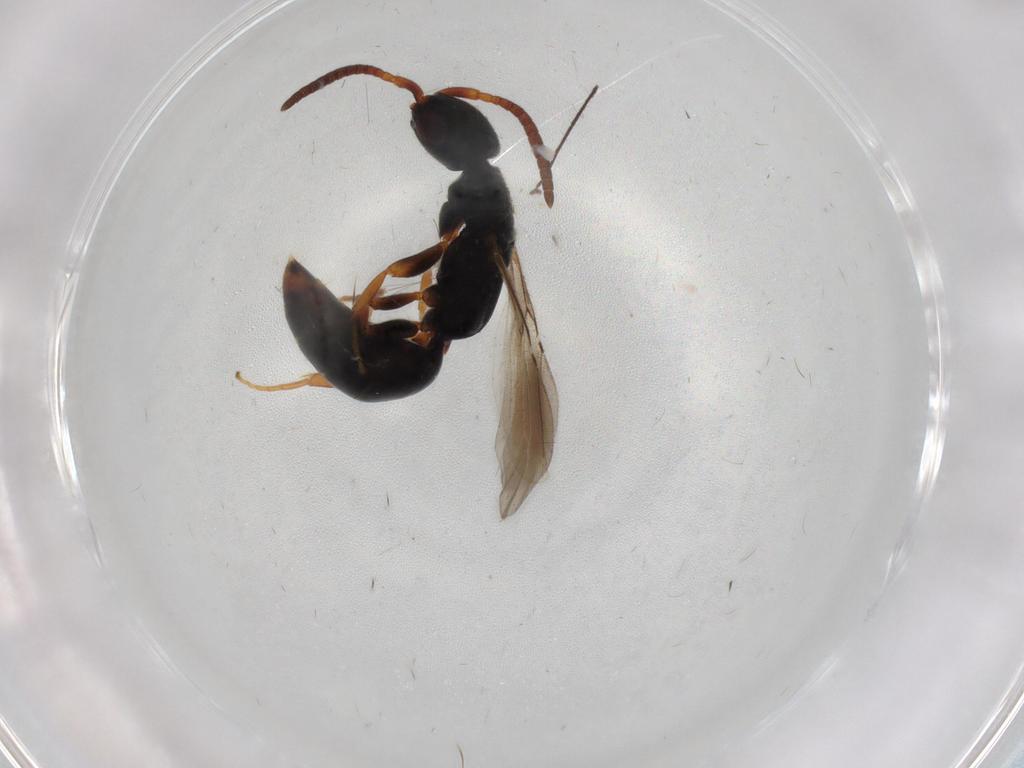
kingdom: Animalia
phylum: Arthropoda
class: Insecta
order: Hymenoptera
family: Bethylidae
